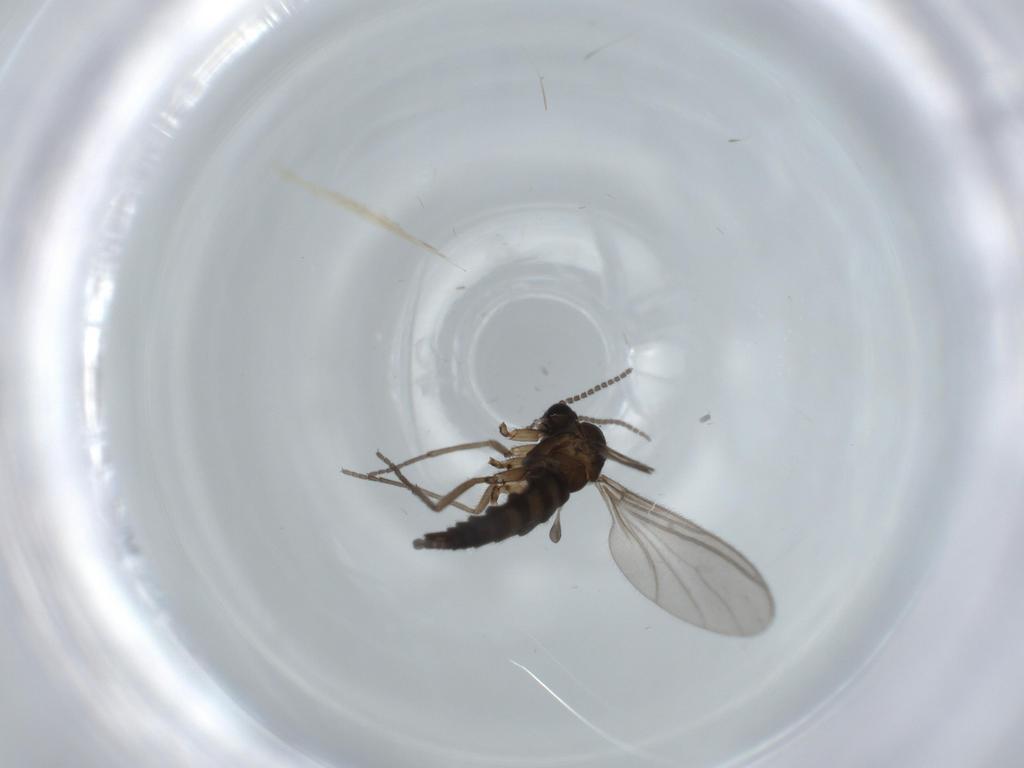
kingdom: Animalia
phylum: Arthropoda
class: Insecta
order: Diptera
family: Sciaridae
